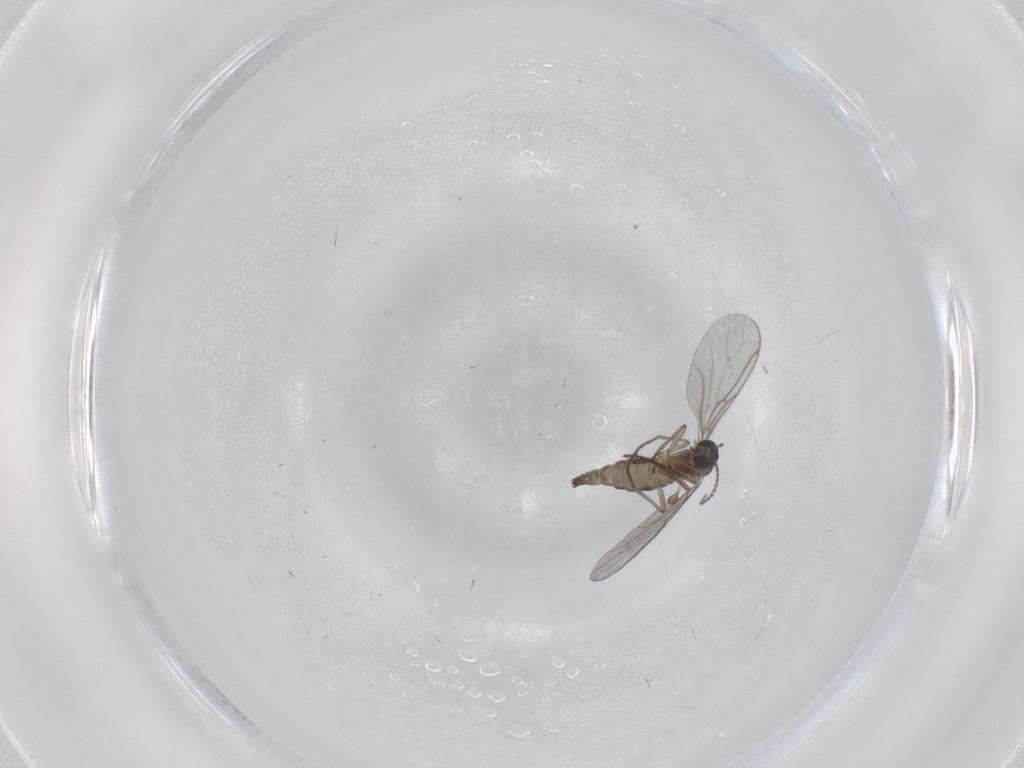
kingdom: Animalia
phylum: Arthropoda
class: Insecta
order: Diptera
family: Sciaridae
